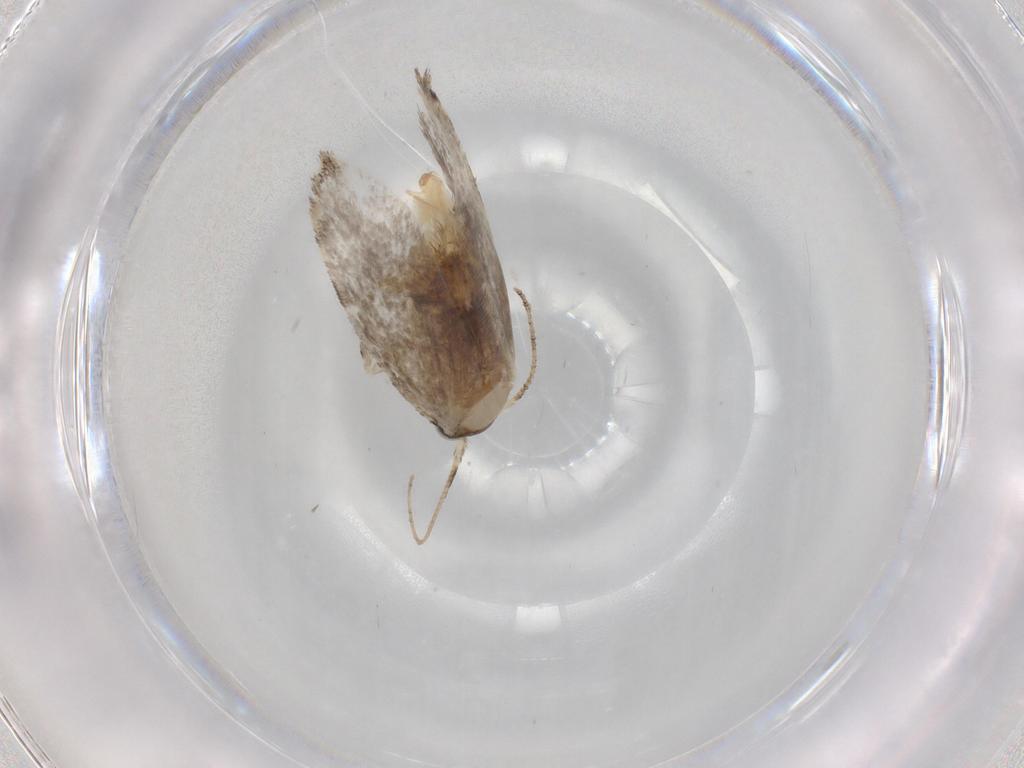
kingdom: Animalia
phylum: Arthropoda
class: Insecta
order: Lepidoptera
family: Tineidae
